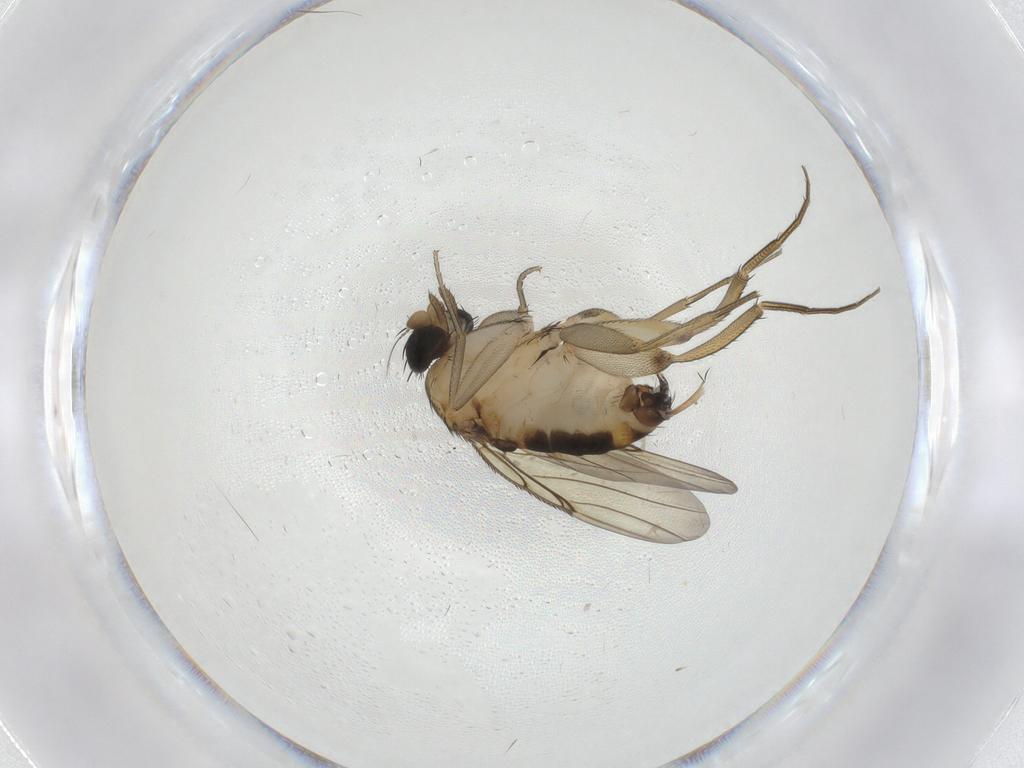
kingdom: Animalia
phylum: Arthropoda
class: Insecta
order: Diptera
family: Phoridae
